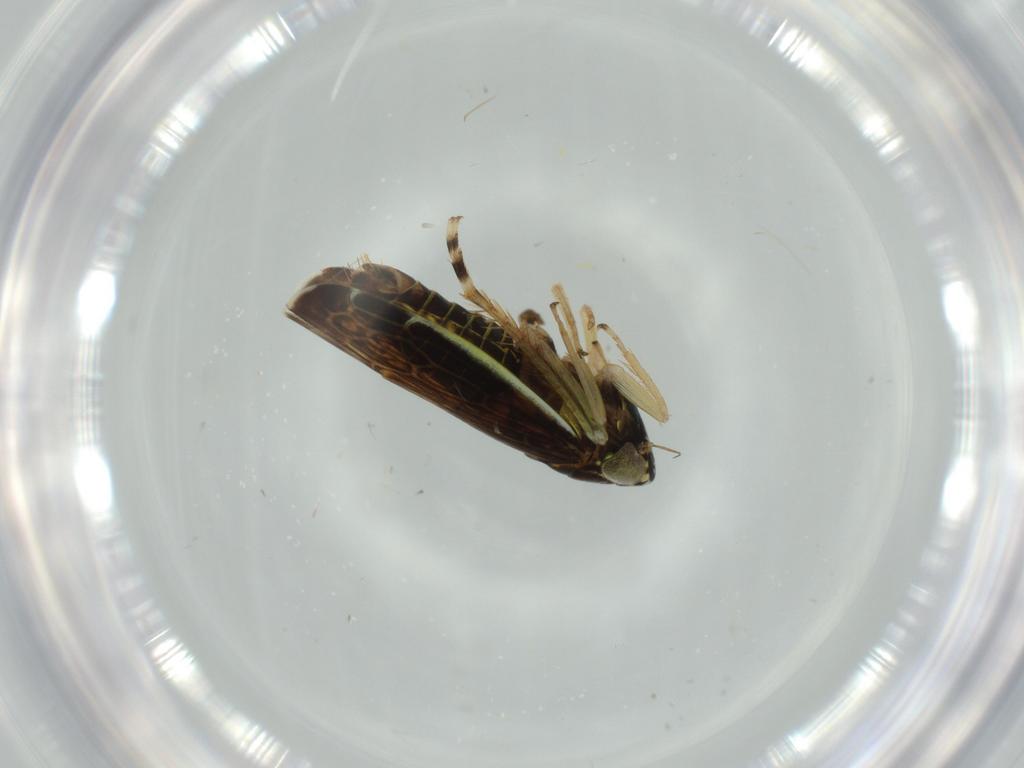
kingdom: Animalia
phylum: Arthropoda
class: Insecta
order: Hemiptera
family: Cicadellidae
